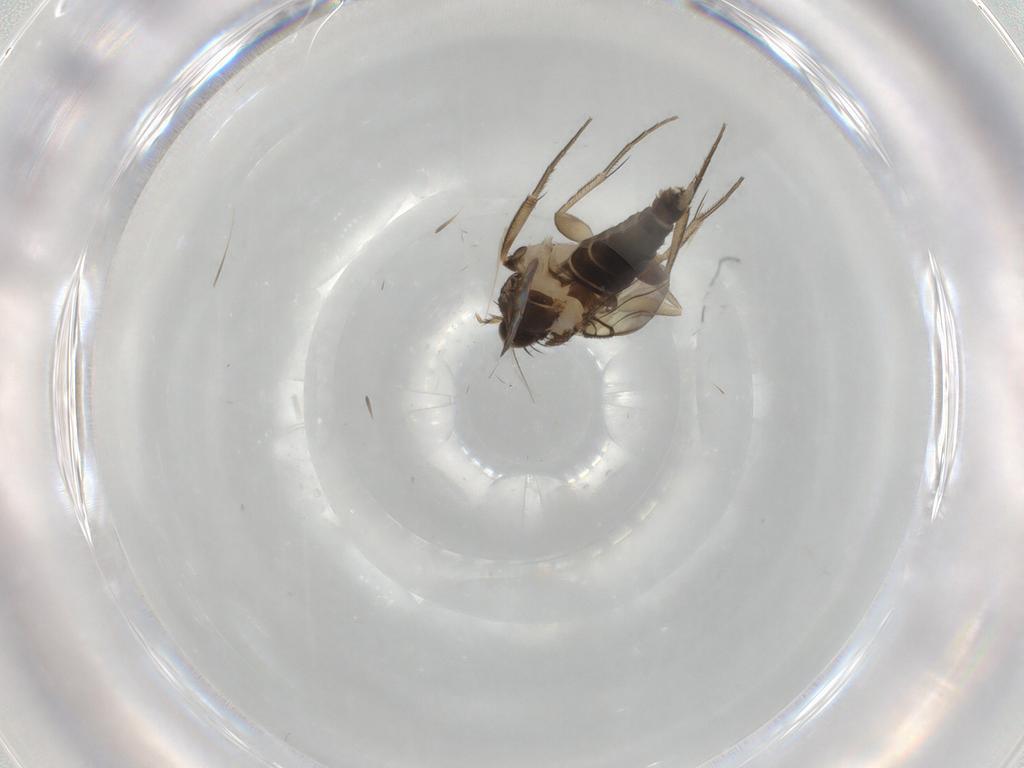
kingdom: Animalia
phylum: Arthropoda
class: Insecta
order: Diptera
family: Phoridae
